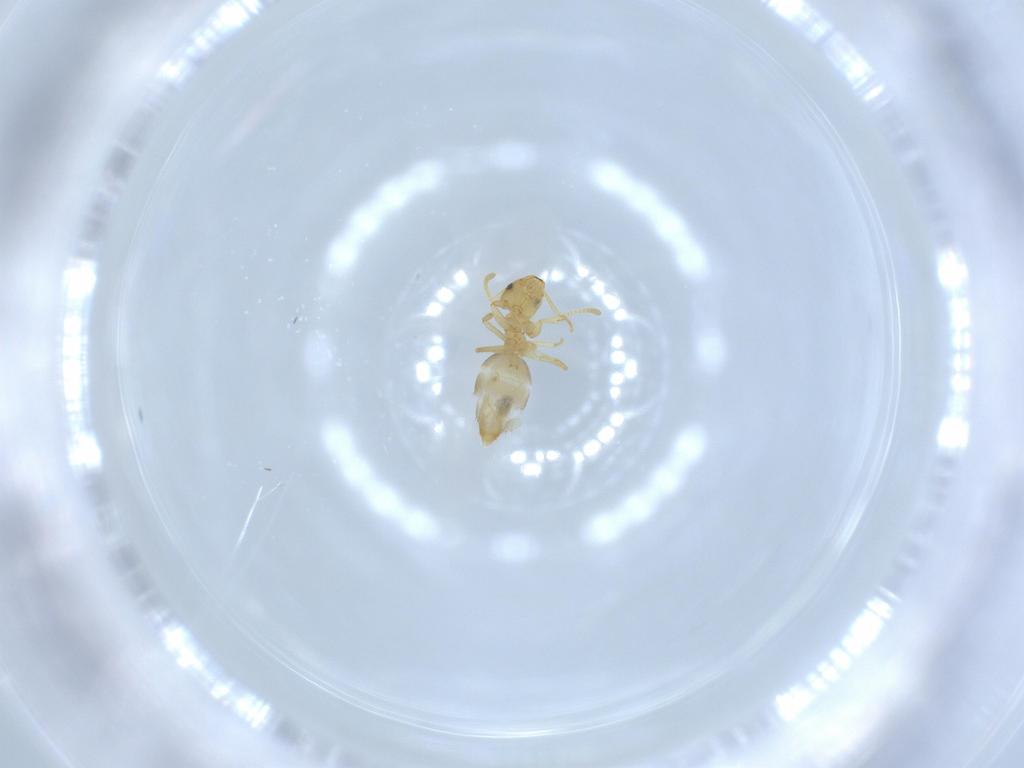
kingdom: Animalia
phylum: Arthropoda
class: Insecta
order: Hymenoptera
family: Formicidae
